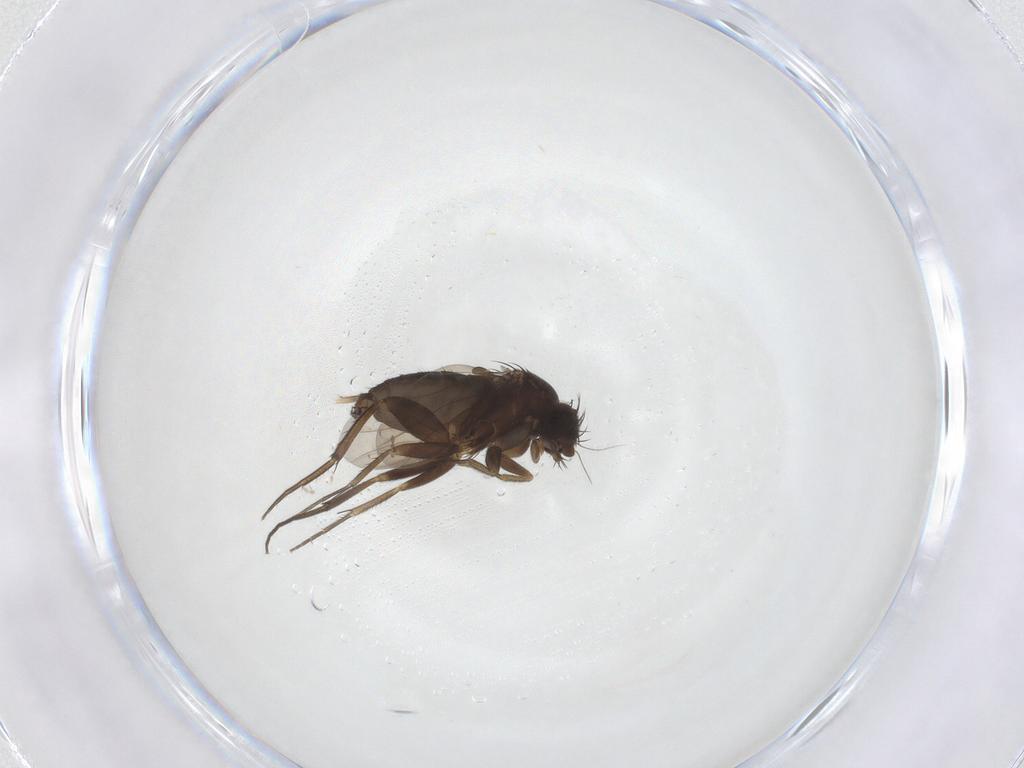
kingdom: Animalia
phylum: Arthropoda
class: Insecta
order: Diptera
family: Phoridae
